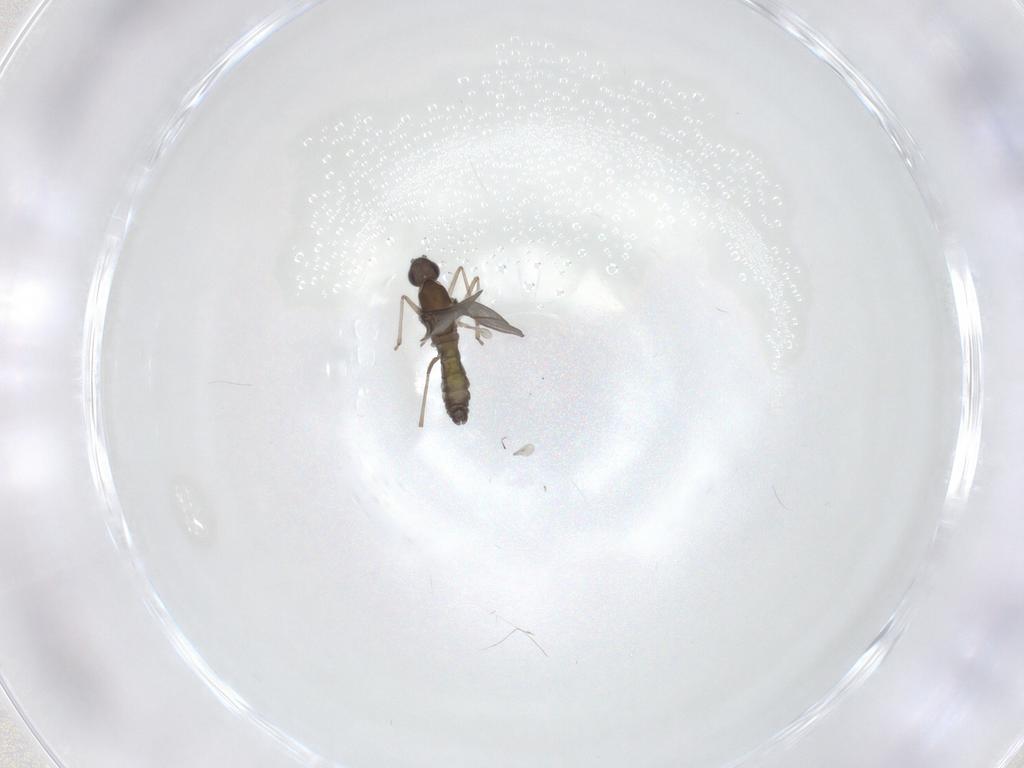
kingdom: Animalia
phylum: Arthropoda
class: Insecta
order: Diptera
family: Cecidomyiidae
